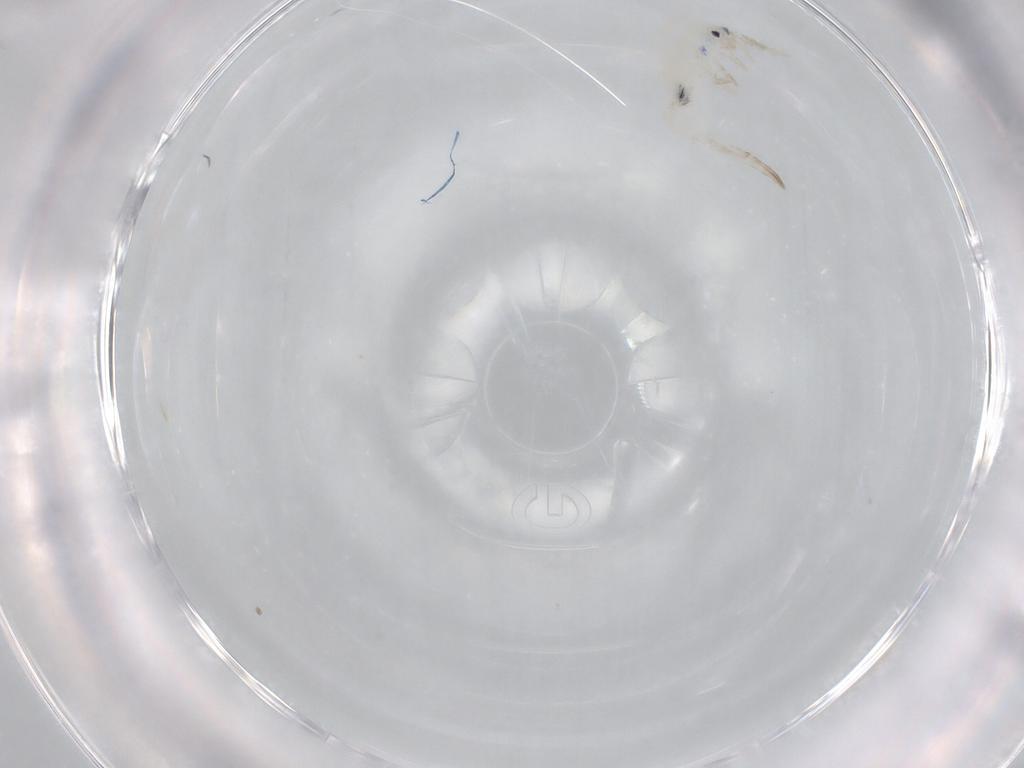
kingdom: Animalia
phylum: Arthropoda
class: Collembola
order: Entomobryomorpha
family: Entomobryidae
